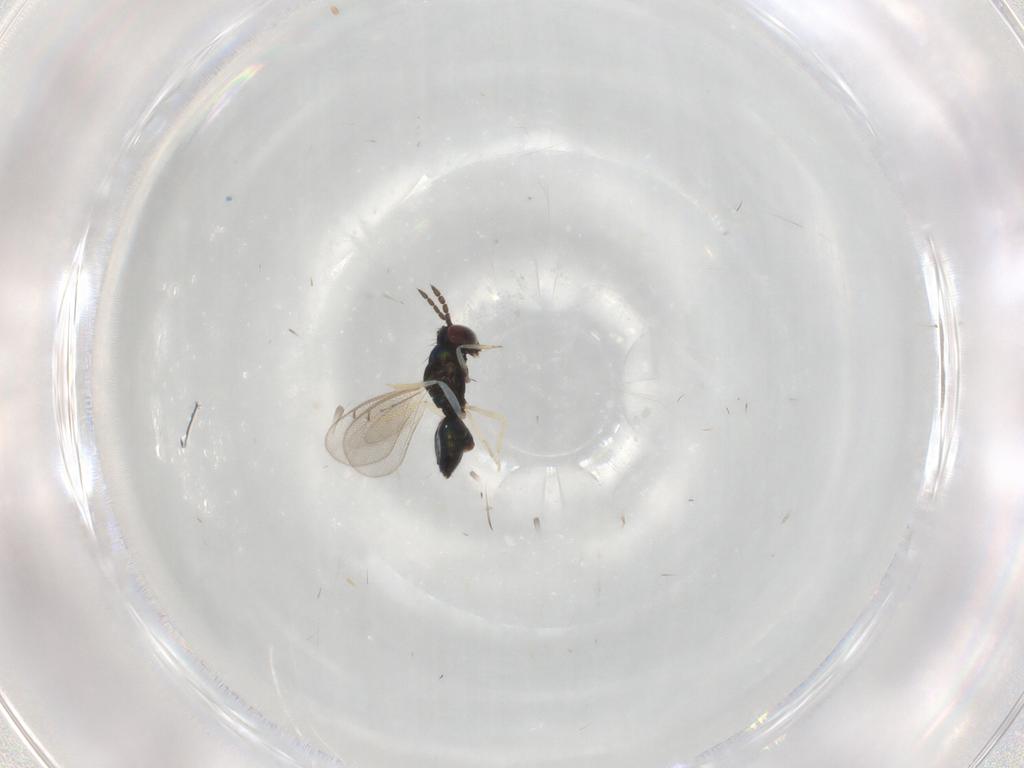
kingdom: Animalia
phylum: Arthropoda
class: Insecta
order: Hymenoptera
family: Eulophidae
